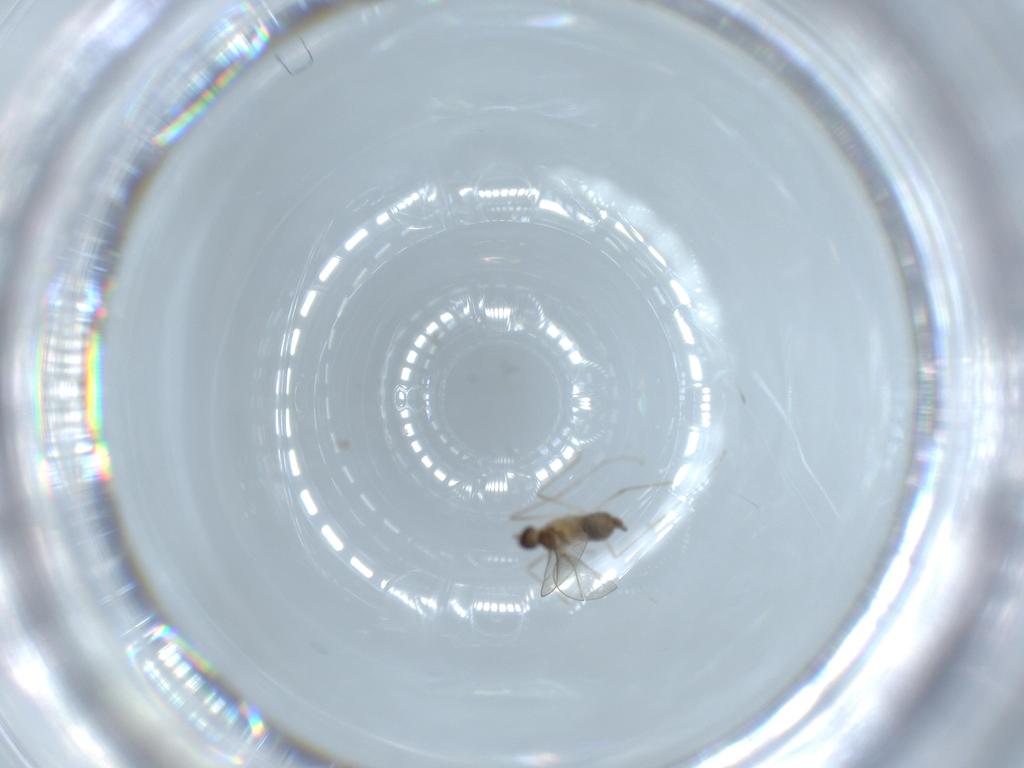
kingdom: Animalia
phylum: Arthropoda
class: Insecta
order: Diptera
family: Cecidomyiidae
